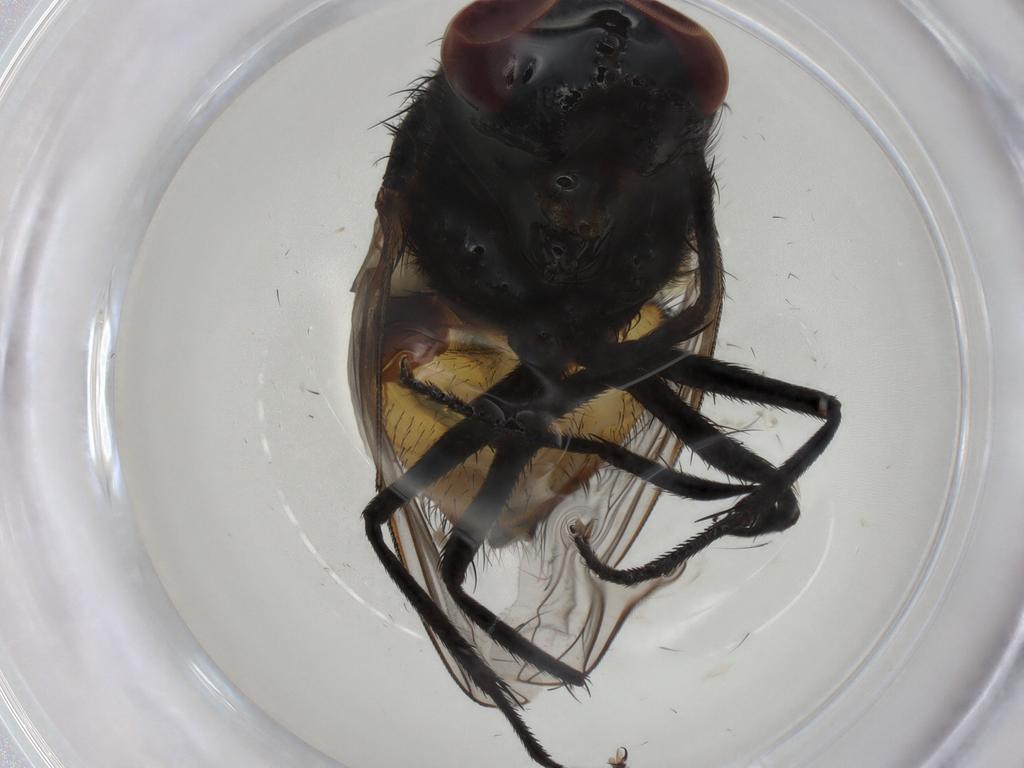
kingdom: Animalia
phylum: Arthropoda
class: Insecta
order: Diptera
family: Muscidae
